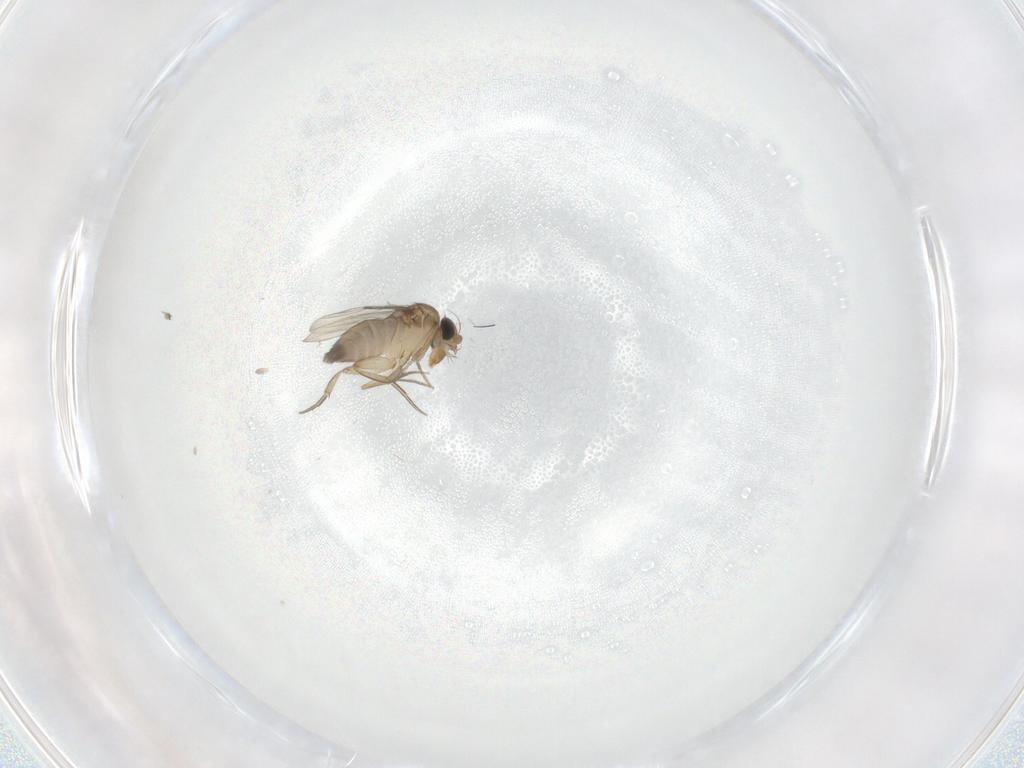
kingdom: Animalia
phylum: Arthropoda
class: Insecta
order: Diptera
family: Phoridae
